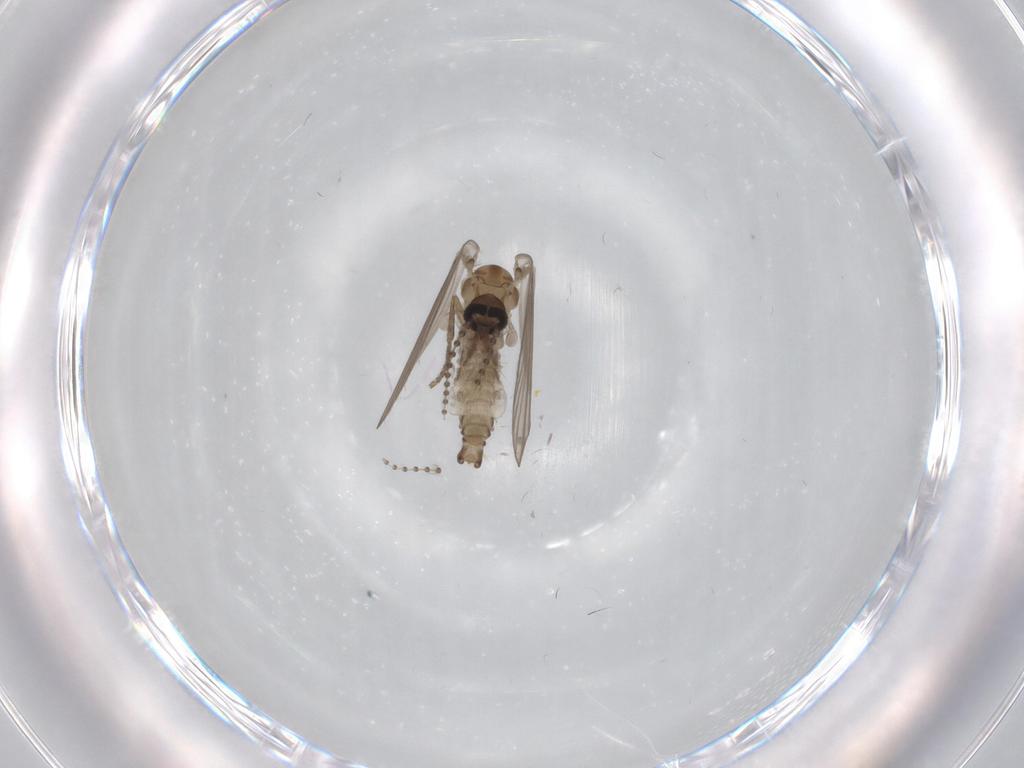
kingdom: Animalia
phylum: Arthropoda
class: Insecta
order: Diptera
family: Psychodidae
